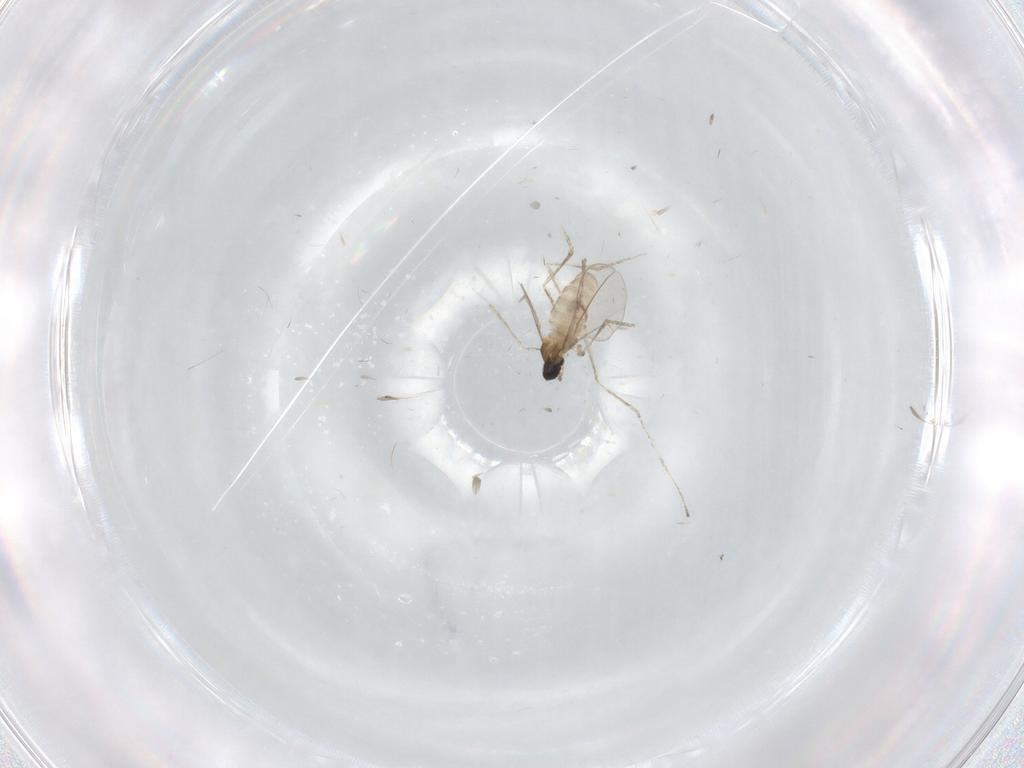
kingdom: Animalia
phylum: Arthropoda
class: Insecta
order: Diptera
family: Cecidomyiidae
